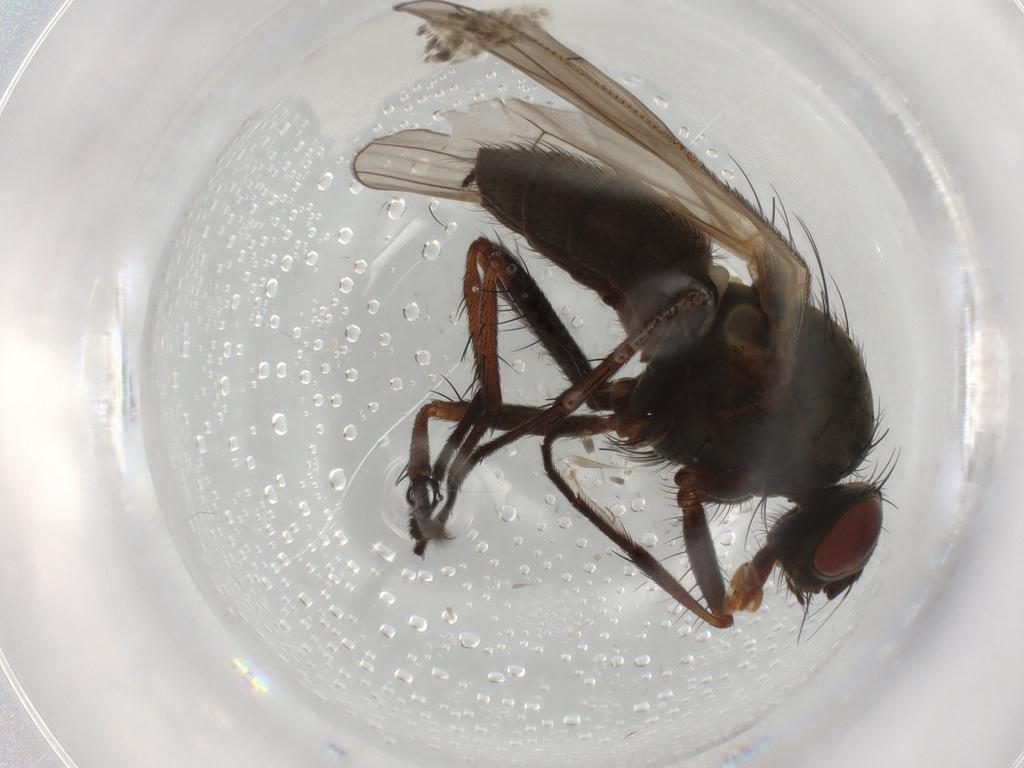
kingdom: Animalia
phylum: Arthropoda
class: Insecta
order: Diptera
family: Anthomyiidae
